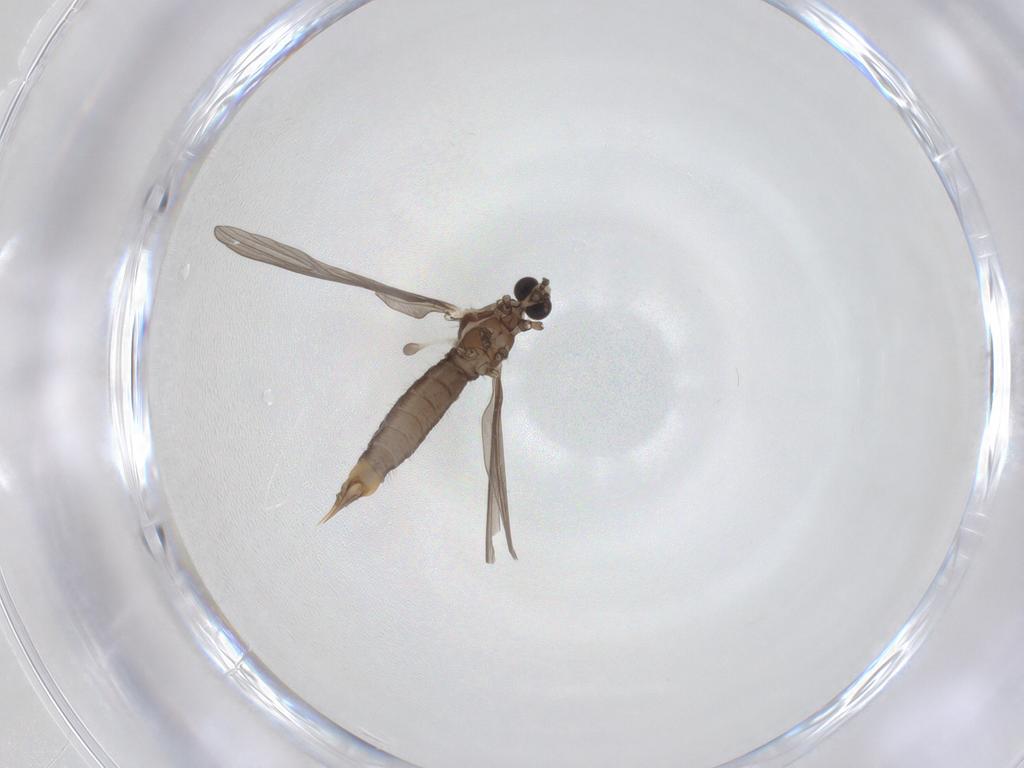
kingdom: Animalia
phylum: Arthropoda
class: Insecta
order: Diptera
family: Limoniidae
